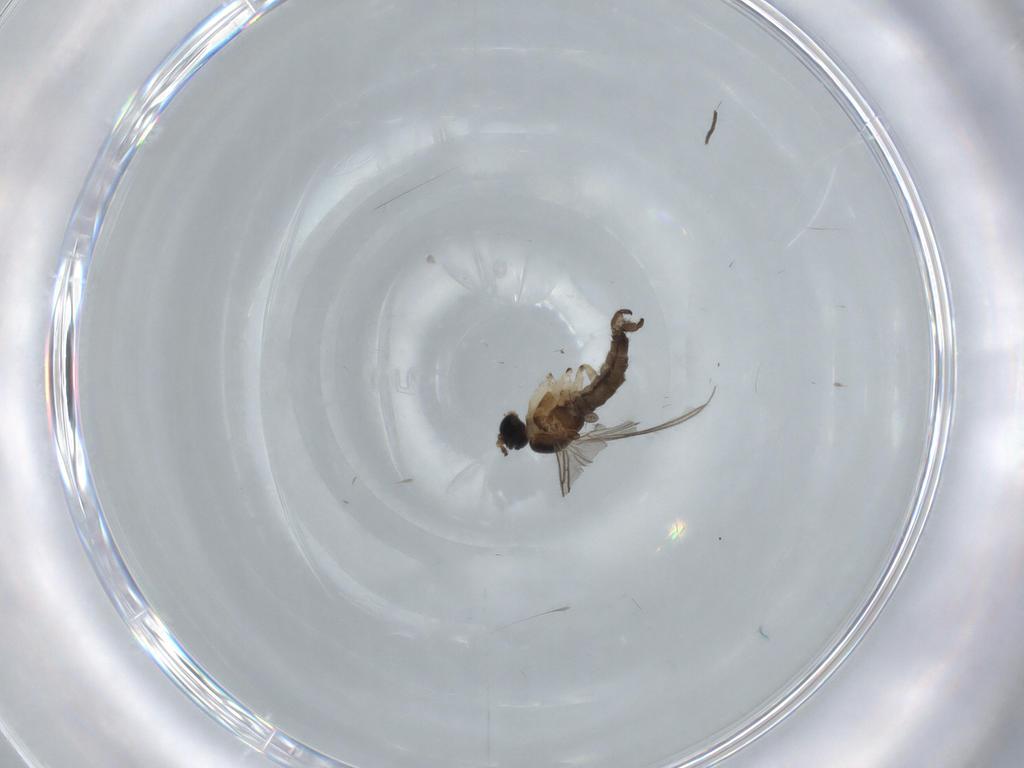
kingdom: Animalia
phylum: Arthropoda
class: Insecta
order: Diptera
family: Sciaridae
